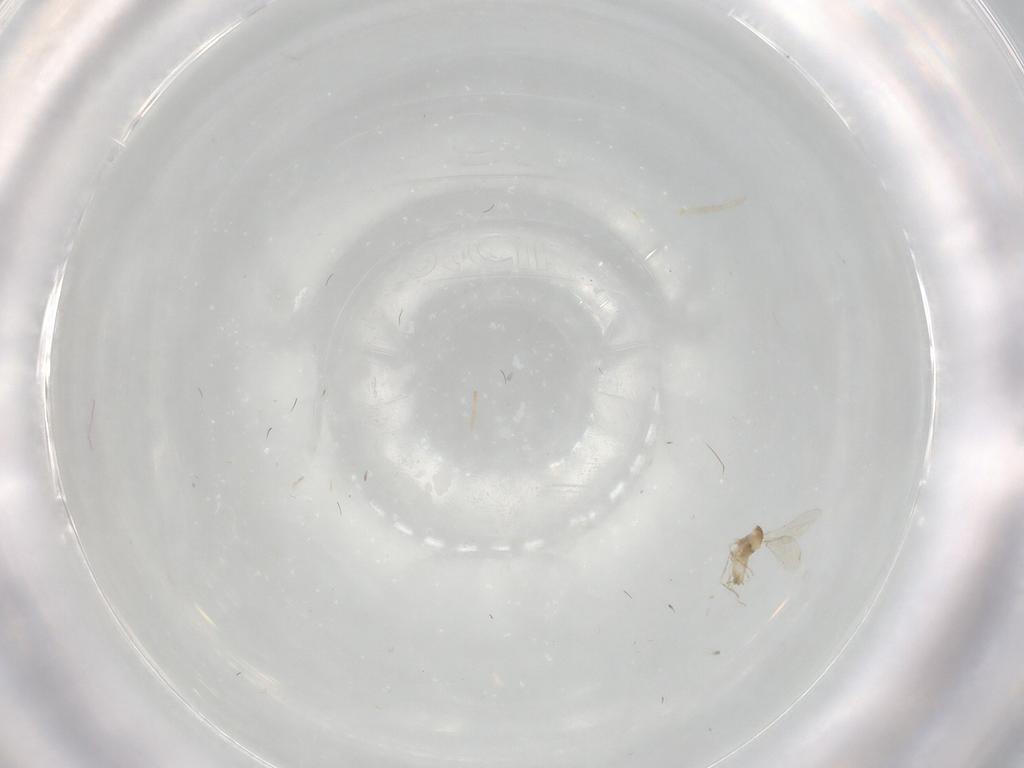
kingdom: Animalia
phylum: Arthropoda
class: Insecta
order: Diptera
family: Cecidomyiidae
